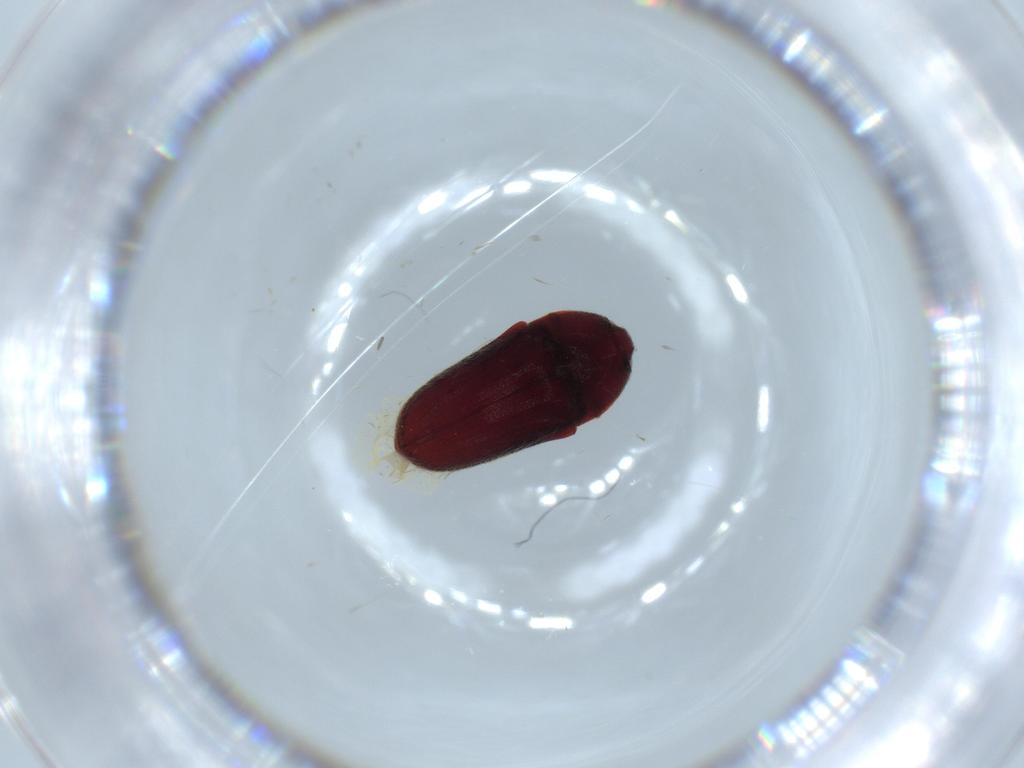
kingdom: Animalia
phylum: Arthropoda
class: Insecta
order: Coleoptera
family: Throscidae
